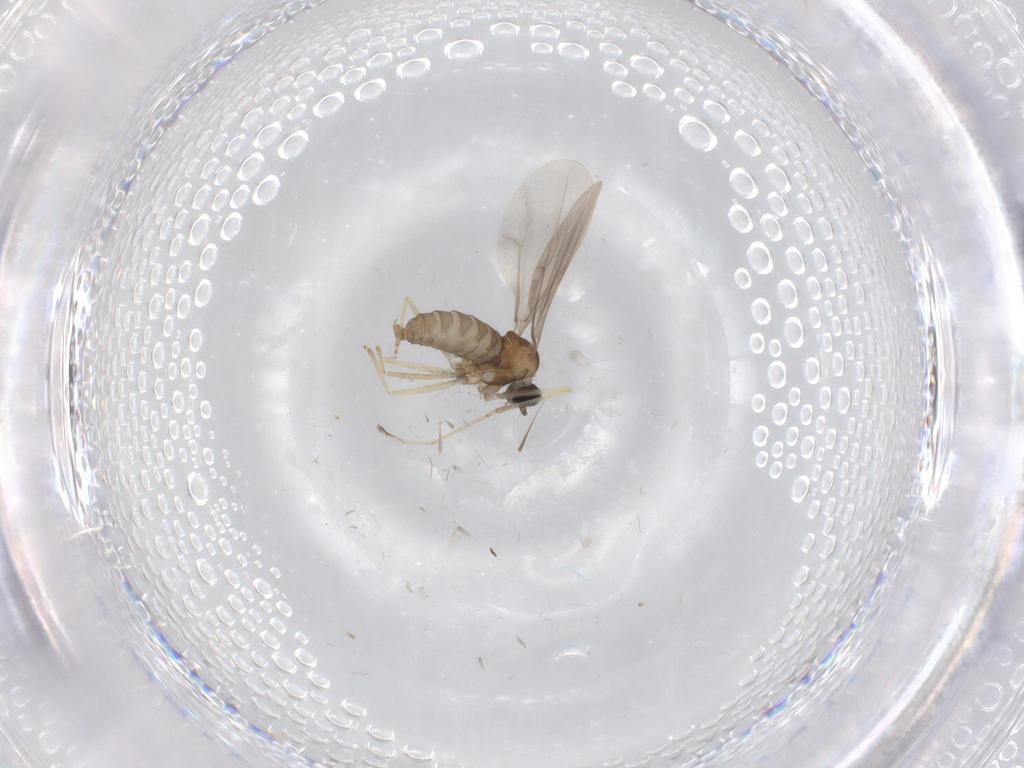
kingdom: Animalia
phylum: Arthropoda
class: Insecta
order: Diptera
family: Cecidomyiidae
